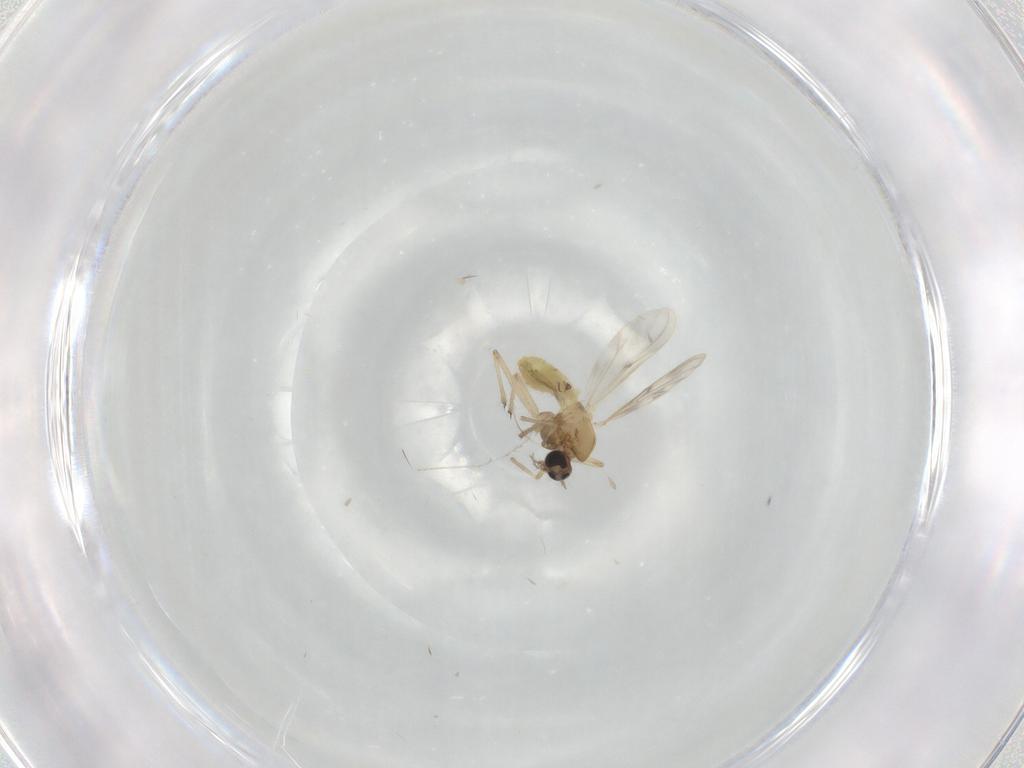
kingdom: Animalia
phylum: Arthropoda
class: Insecta
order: Diptera
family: Chironomidae
